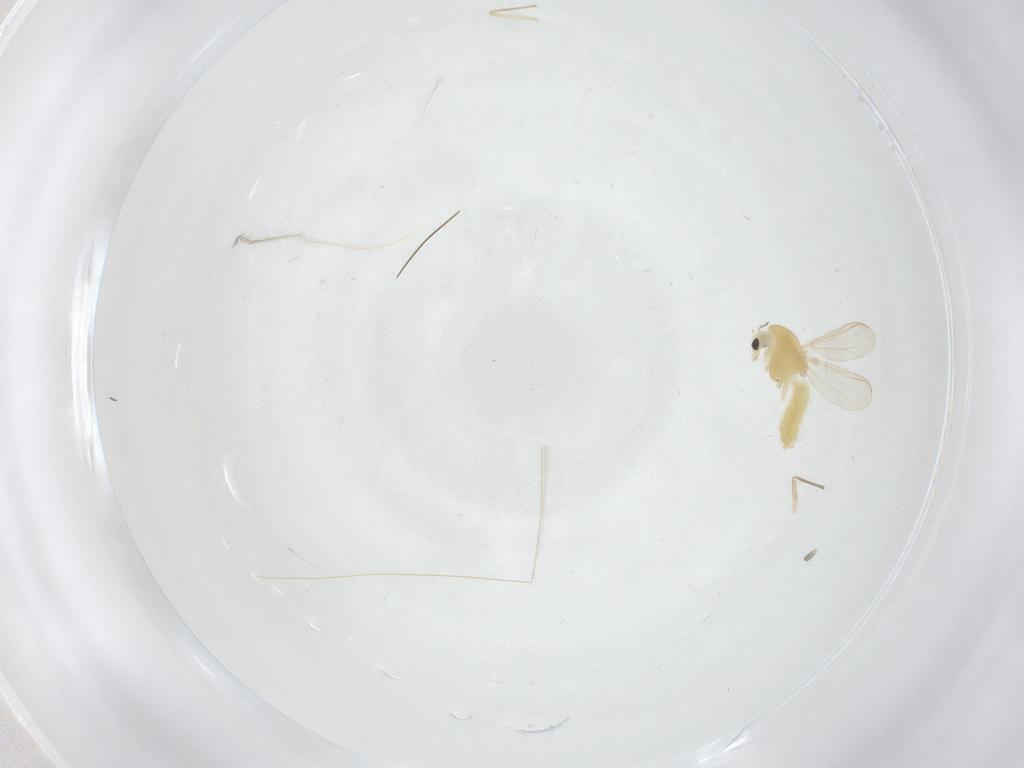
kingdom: Animalia
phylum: Arthropoda
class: Insecta
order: Diptera
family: Chironomidae
